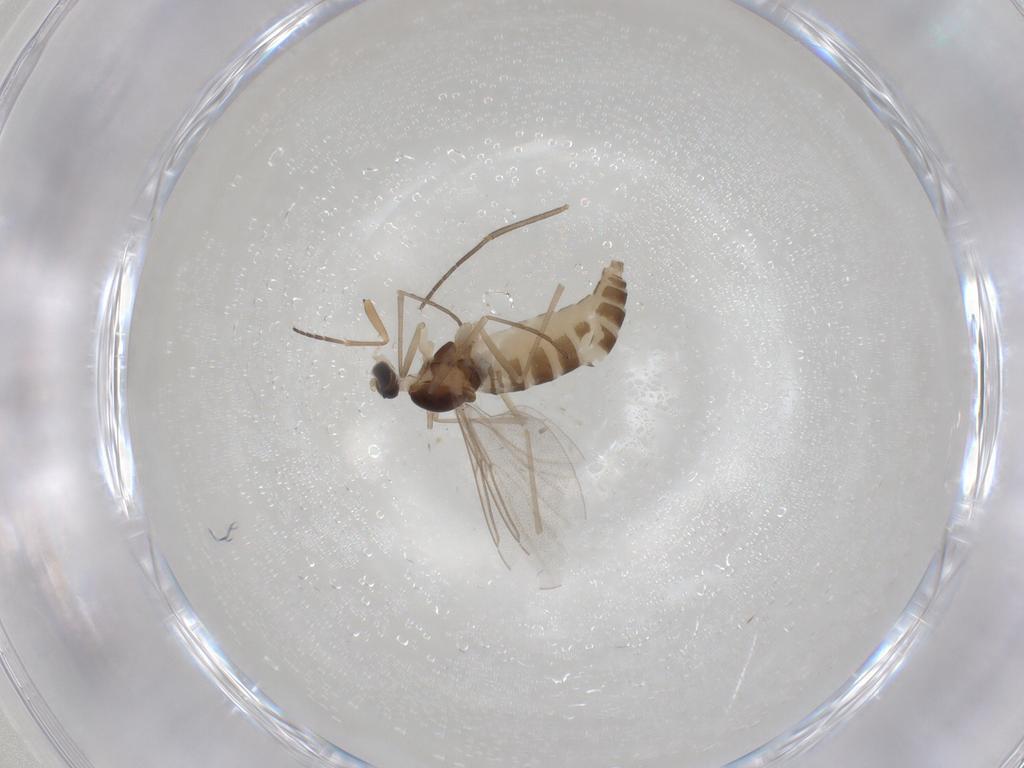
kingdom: Animalia
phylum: Arthropoda
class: Insecta
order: Diptera
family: Cecidomyiidae
